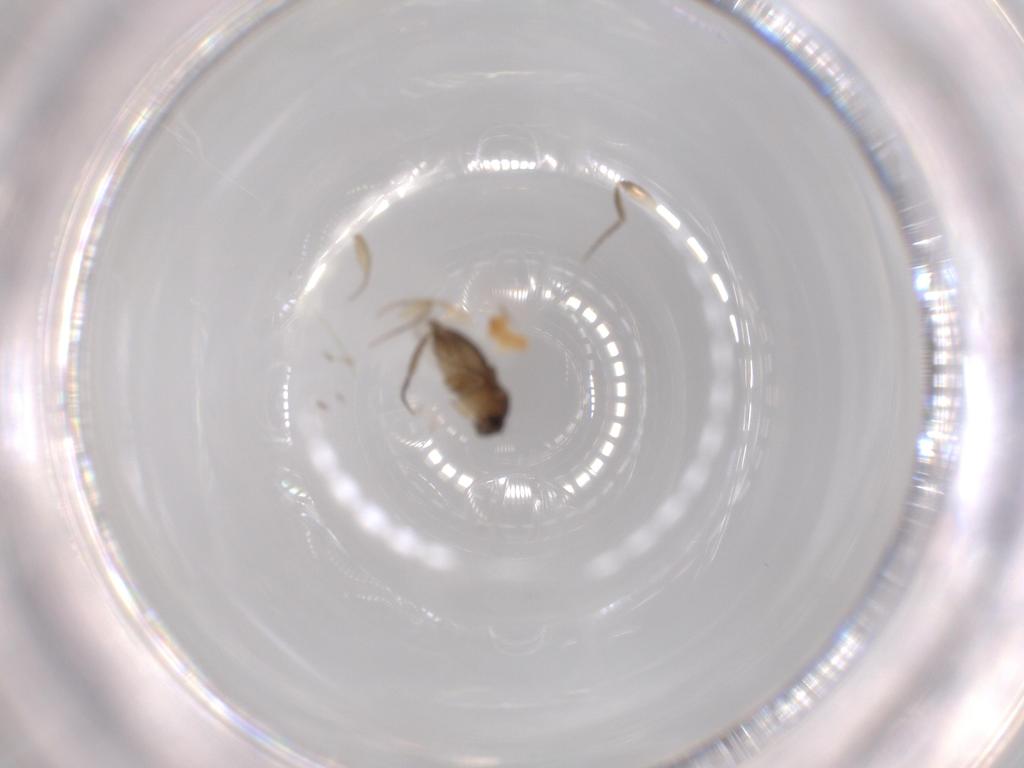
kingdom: Animalia
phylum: Arthropoda
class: Insecta
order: Diptera
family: Phoridae
